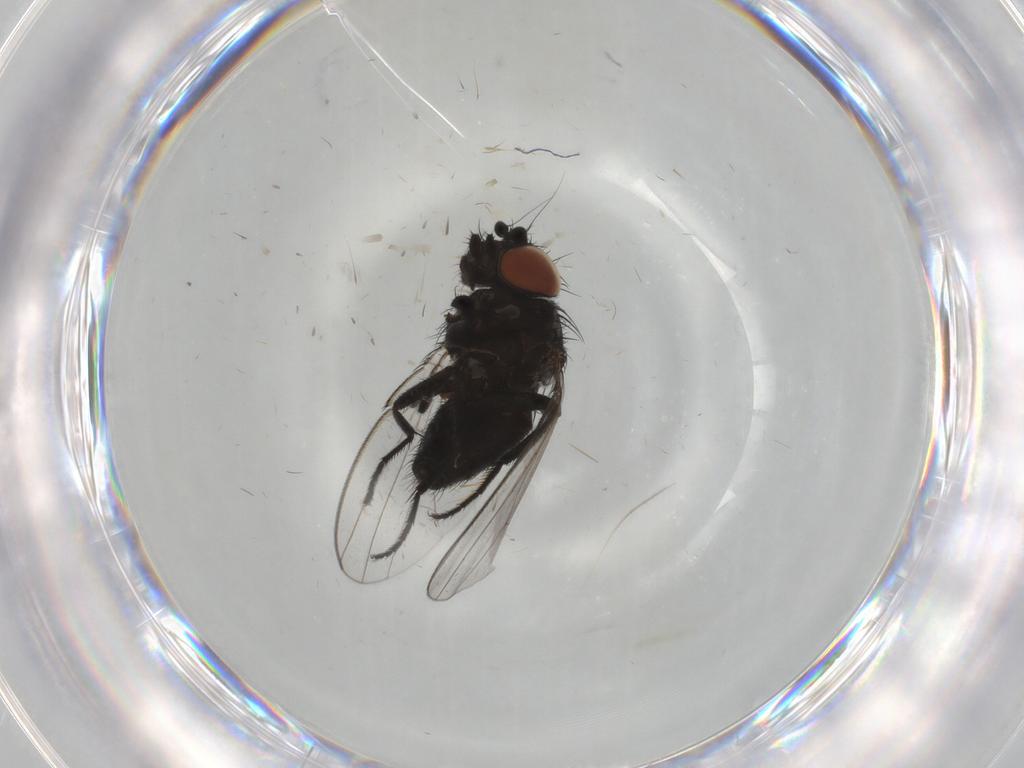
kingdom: Animalia
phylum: Arthropoda
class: Insecta
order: Diptera
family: Milichiidae
